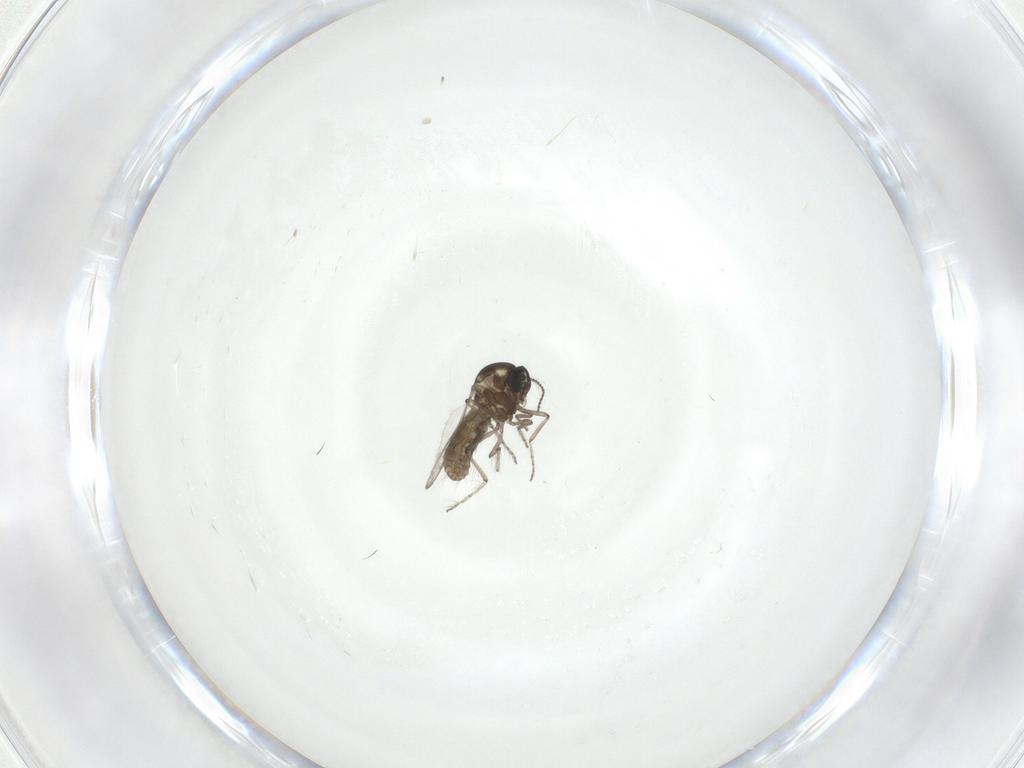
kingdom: Animalia
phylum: Arthropoda
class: Insecta
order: Diptera
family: Ceratopogonidae
